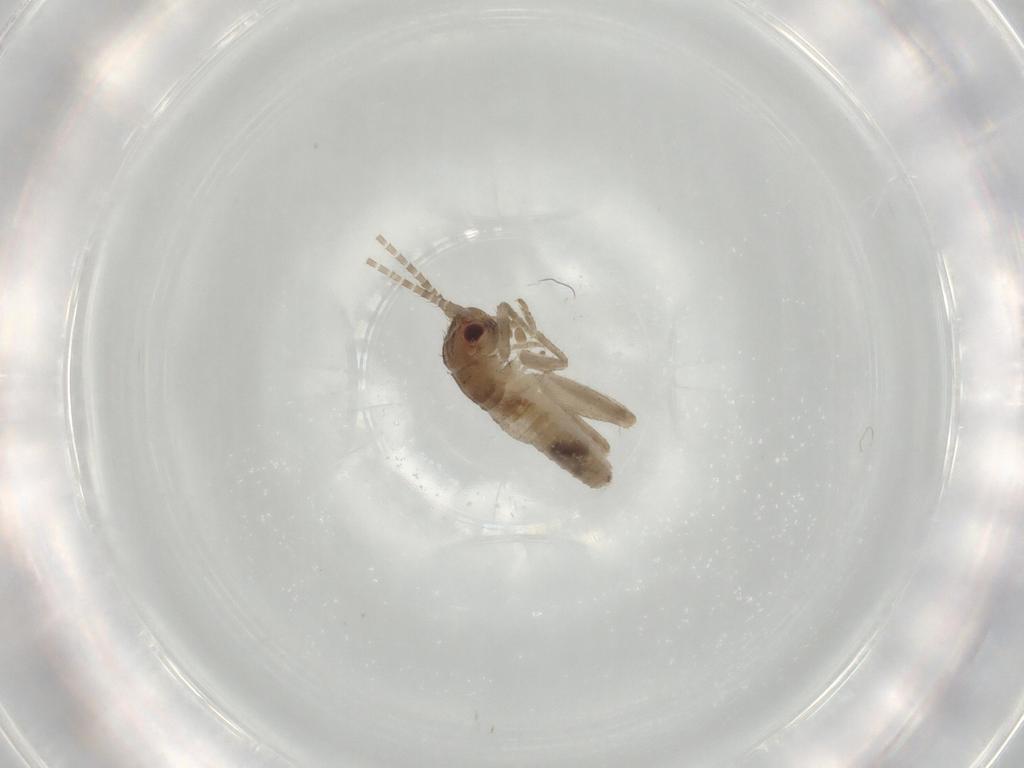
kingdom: Animalia
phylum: Arthropoda
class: Insecta
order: Orthoptera
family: Mogoplistidae
